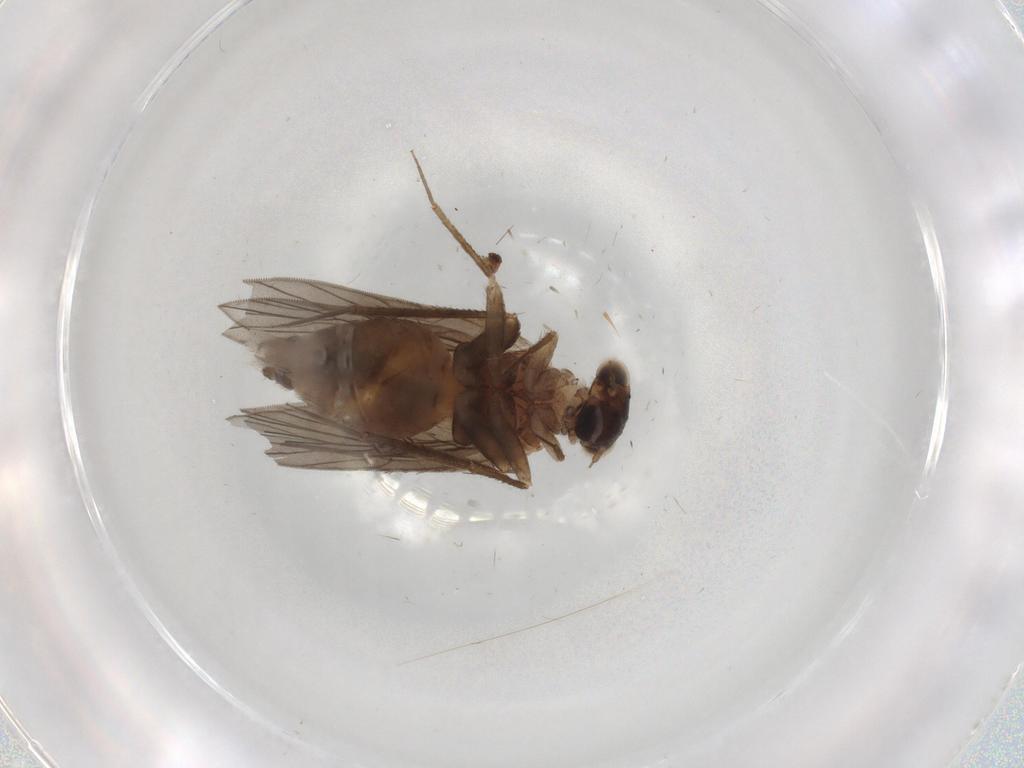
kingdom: Animalia
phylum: Arthropoda
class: Insecta
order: Psocodea
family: Lepidopsocidae
